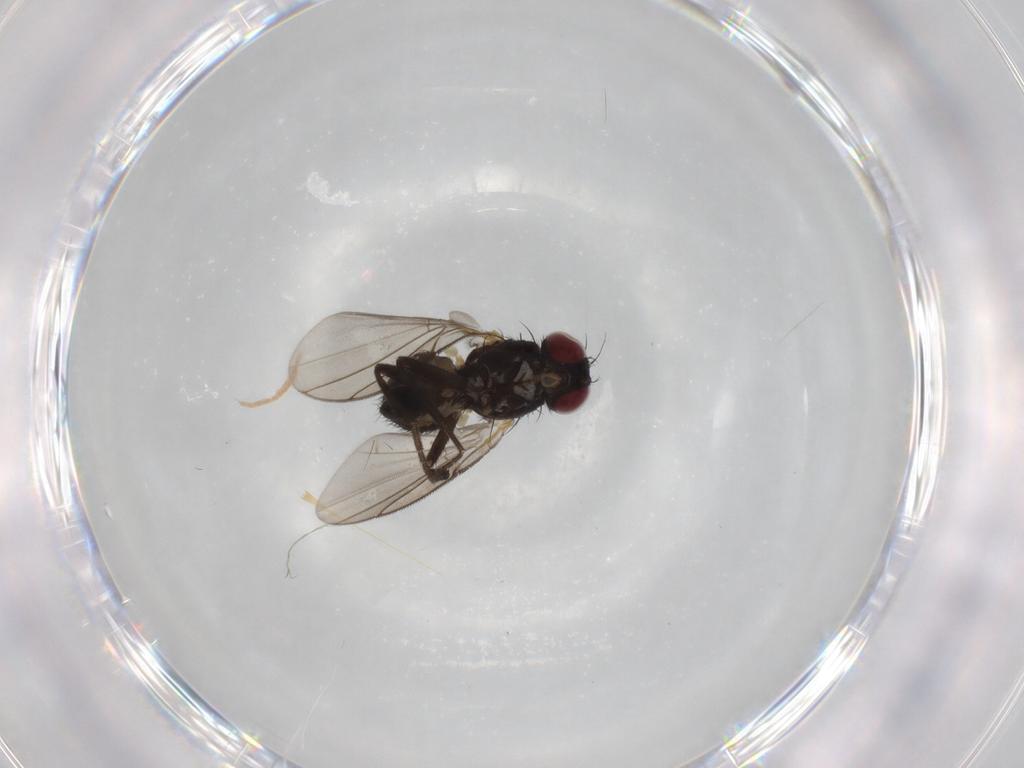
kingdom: Animalia
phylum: Arthropoda
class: Insecta
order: Diptera
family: Agromyzidae
